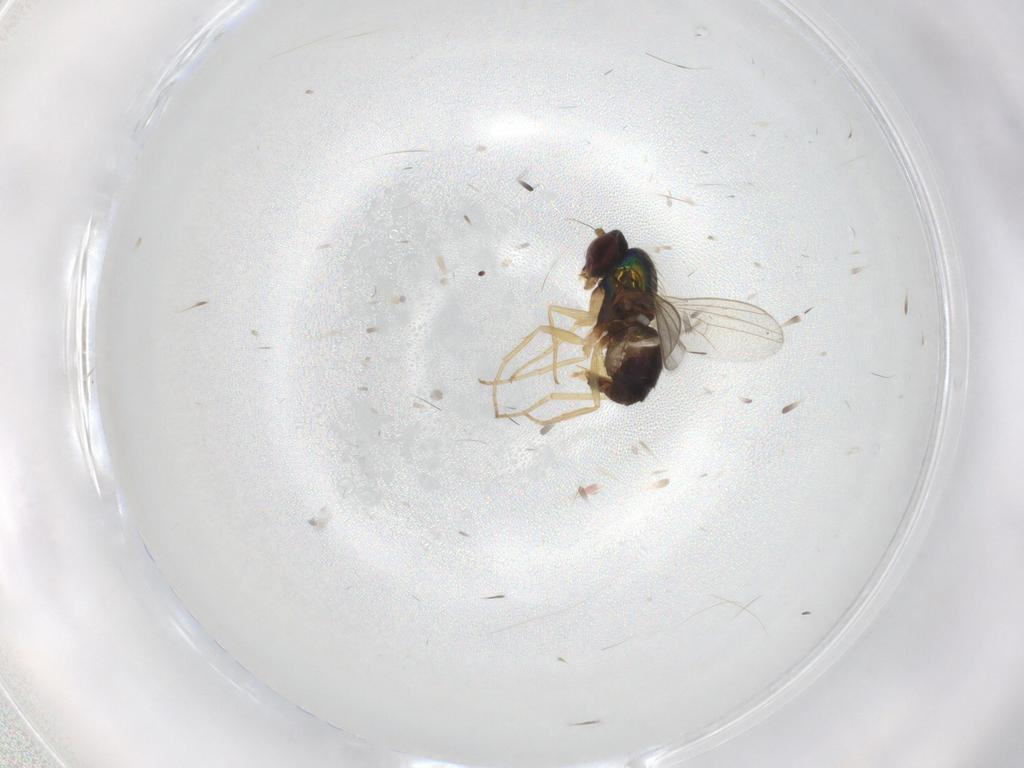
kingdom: Animalia
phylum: Arthropoda
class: Insecta
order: Diptera
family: Dolichopodidae
